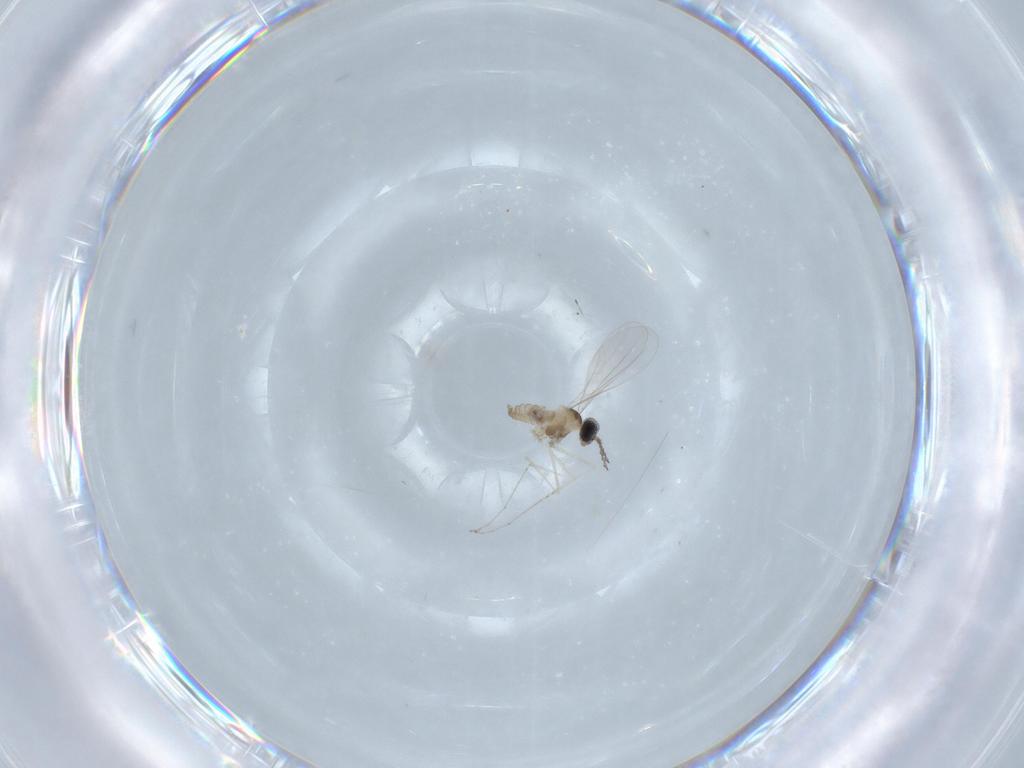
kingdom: Animalia
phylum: Arthropoda
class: Insecta
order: Diptera
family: Cecidomyiidae
